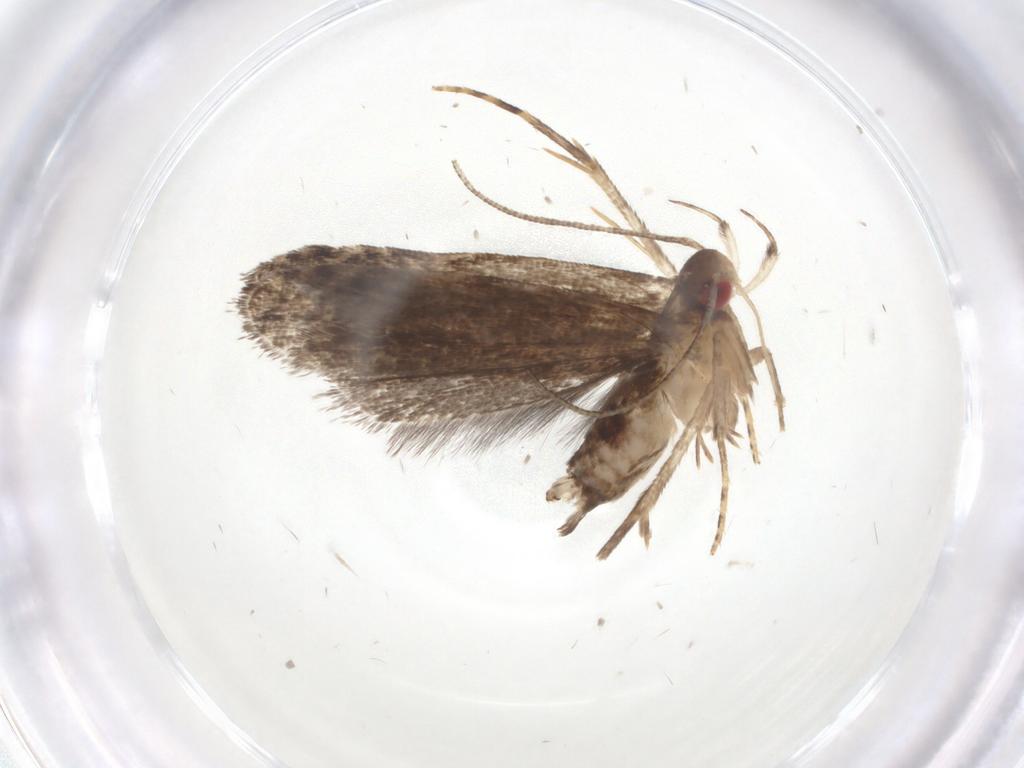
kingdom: Animalia
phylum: Arthropoda
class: Insecta
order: Lepidoptera
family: Gelechiidae
